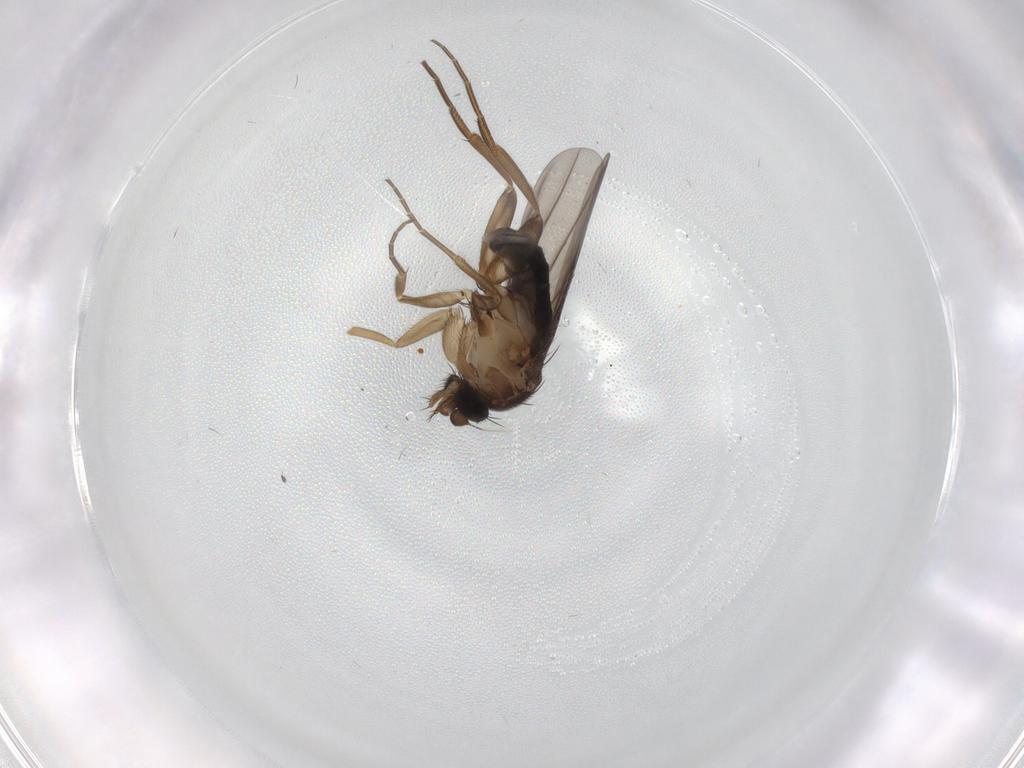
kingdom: Animalia
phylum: Arthropoda
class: Insecta
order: Diptera
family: Phoridae
